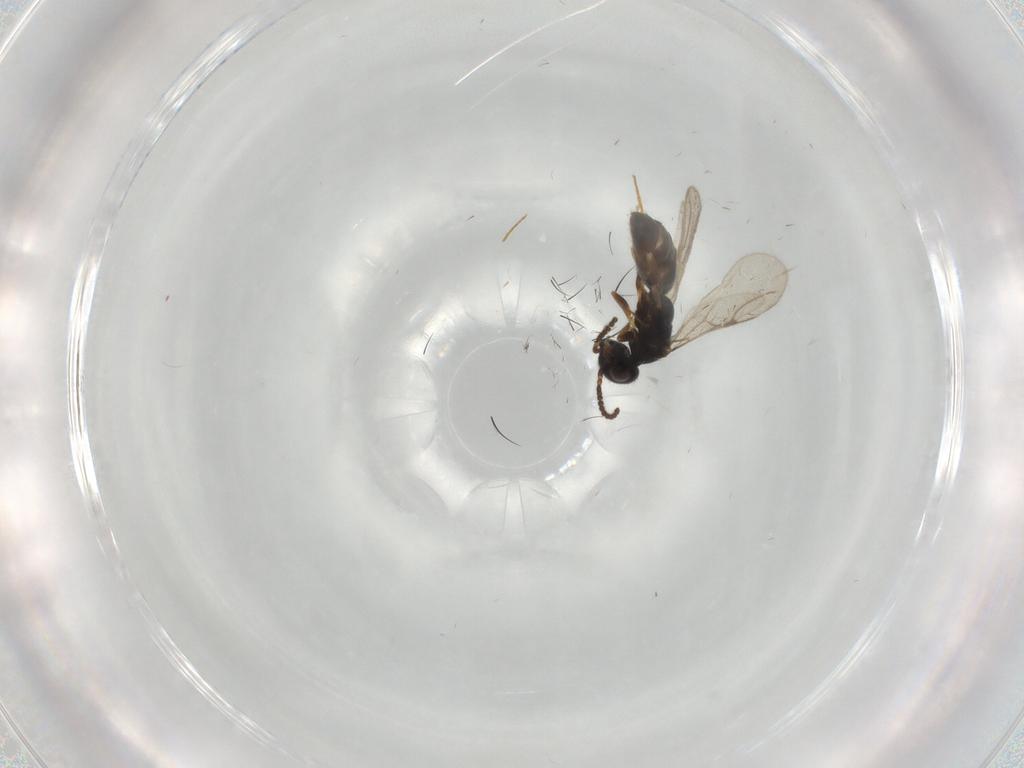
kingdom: Animalia
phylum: Arthropoda
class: Insecta
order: Hymenoptera
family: Bethylidae
